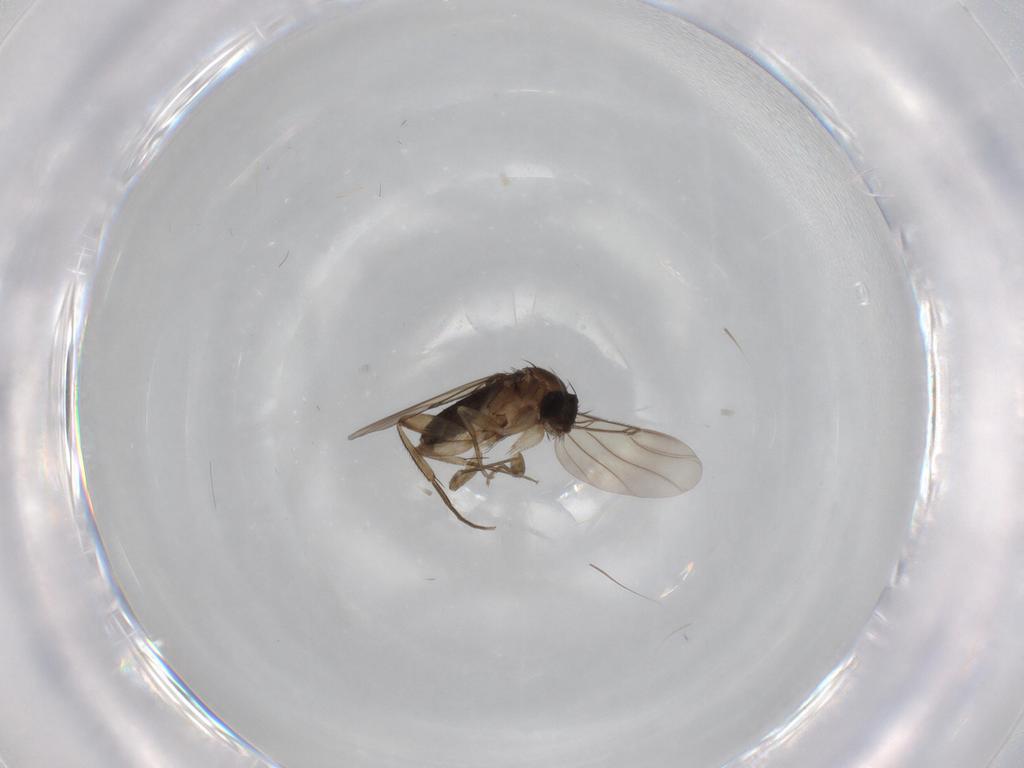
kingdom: Animalia
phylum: Arthropoda
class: Insecta
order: Diptera
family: Phoridae
